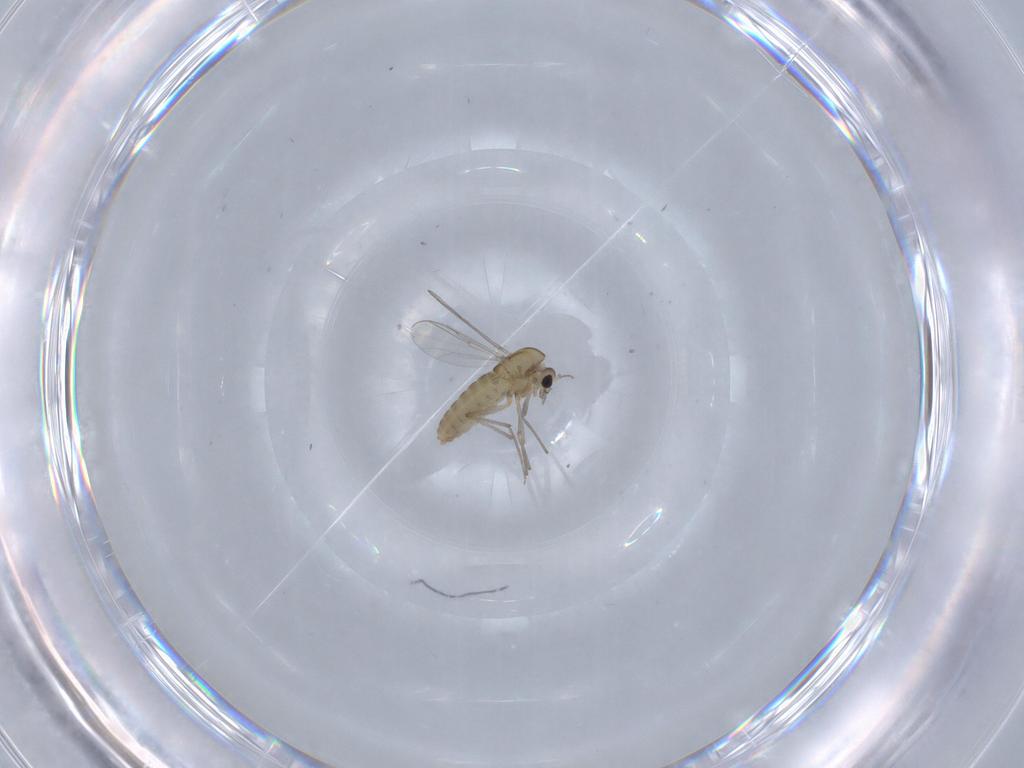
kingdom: Animalia
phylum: Arthropoda
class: Insecta
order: Diptera
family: Chironomidae
